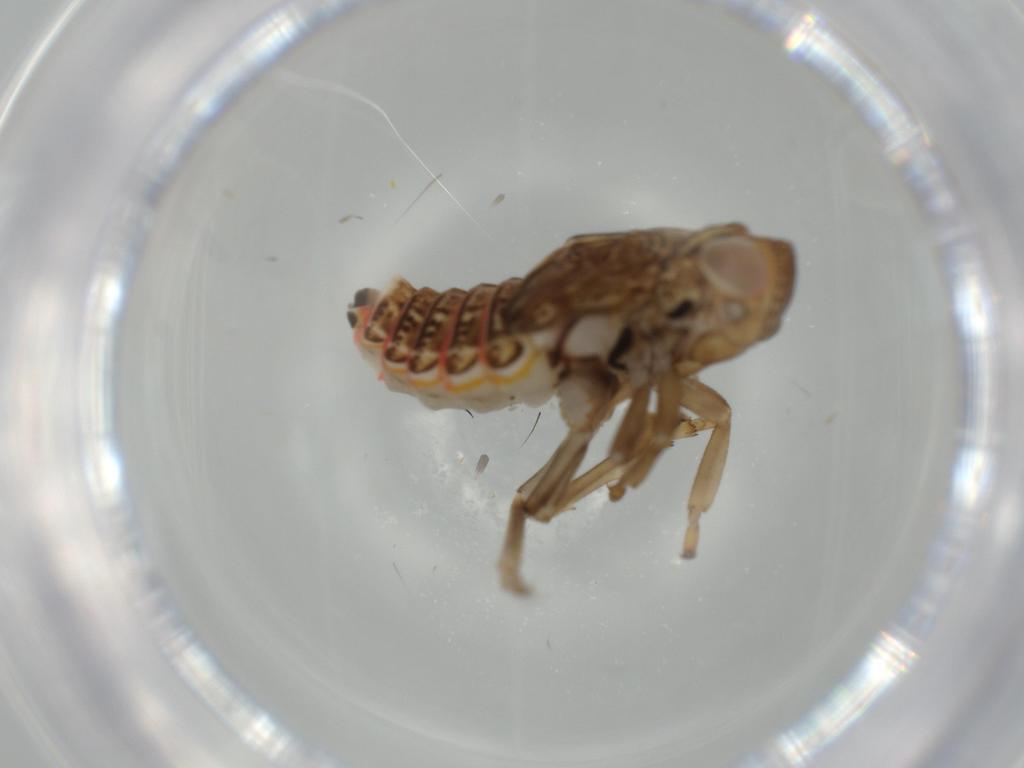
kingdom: Animalia
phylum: Arthropoda
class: Insecta
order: Hemiptera
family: Issidae
